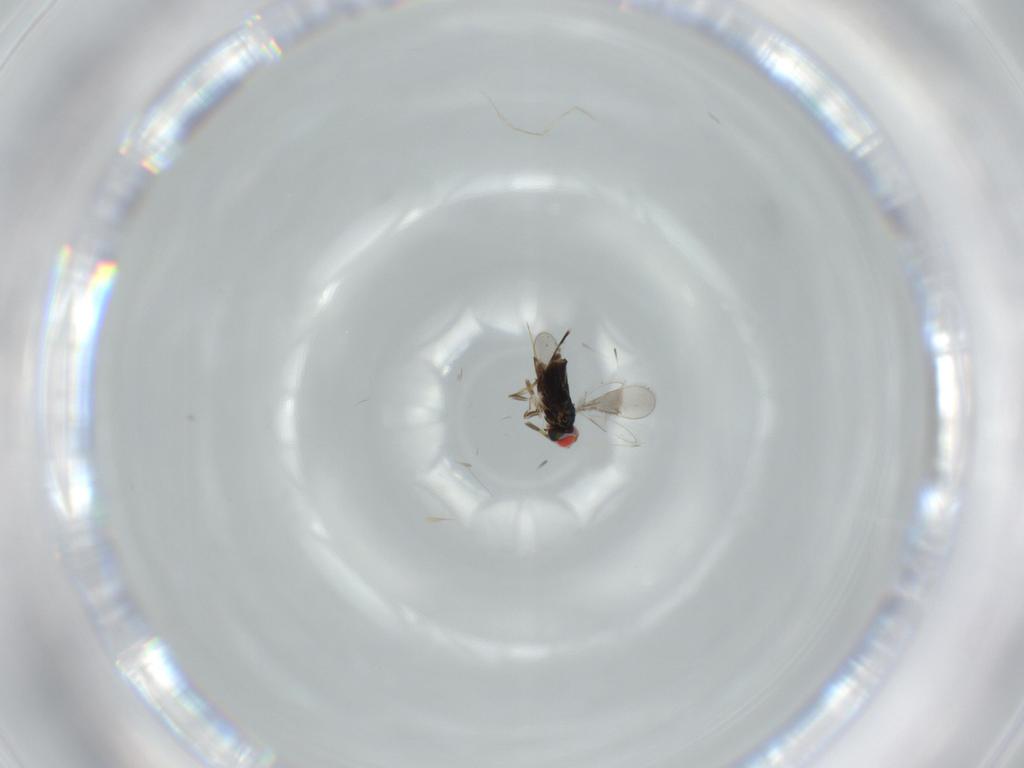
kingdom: Animalia
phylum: Arthropoda
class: Insecta
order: Hymenoptera
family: Azotidae
